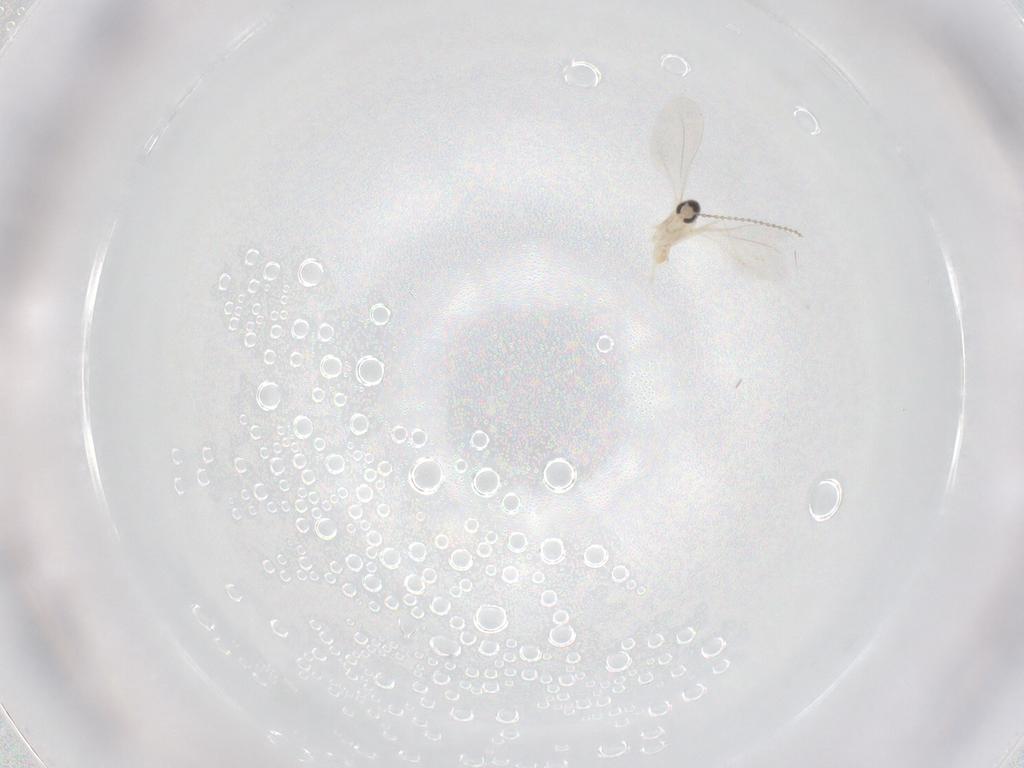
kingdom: Animalia
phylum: Arthropoda
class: Insecta
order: Diptera
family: Cecidomyiidae
